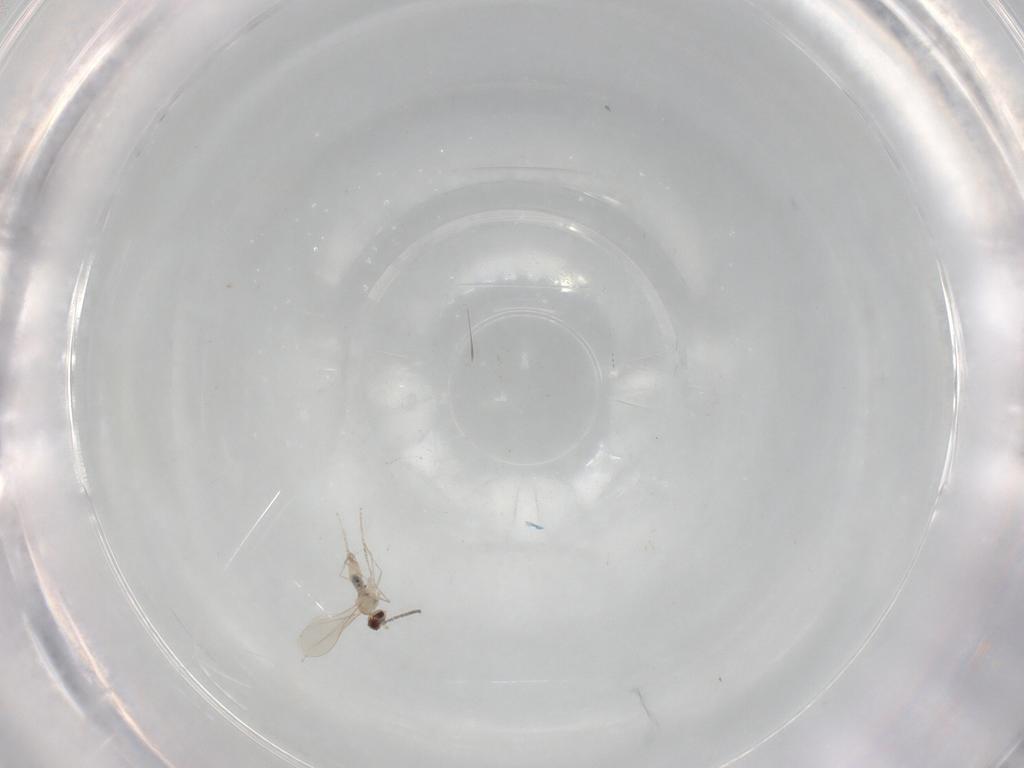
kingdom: Animalia
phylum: Arthropoda
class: Insecta
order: Diptera
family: Psychodidae
